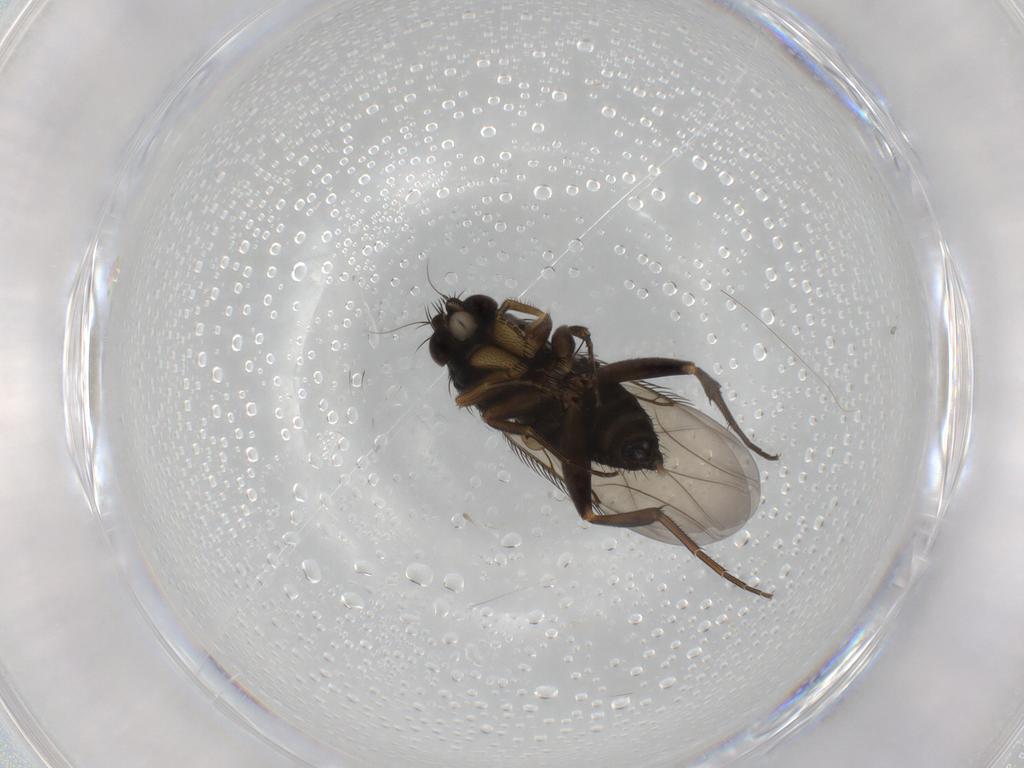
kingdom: Animalia
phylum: Arthropoda
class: Insecta
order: Diptera
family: Phoridae
